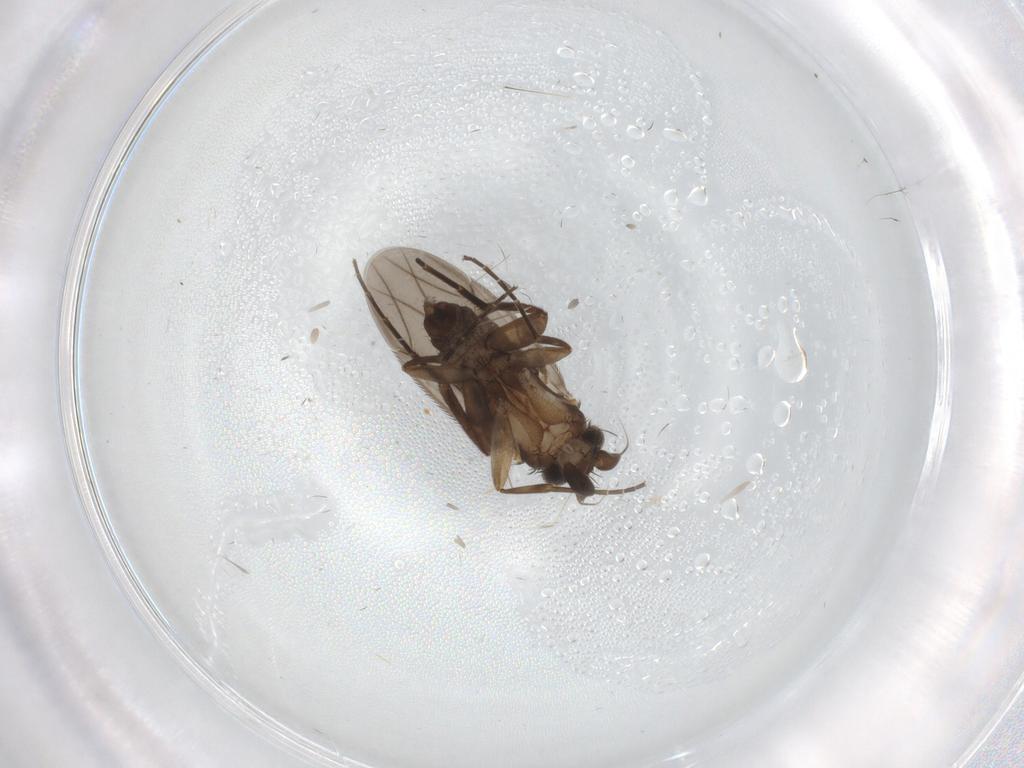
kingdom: Animalia
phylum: Arthropoda
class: Insecta
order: Diptera
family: Phoridae
